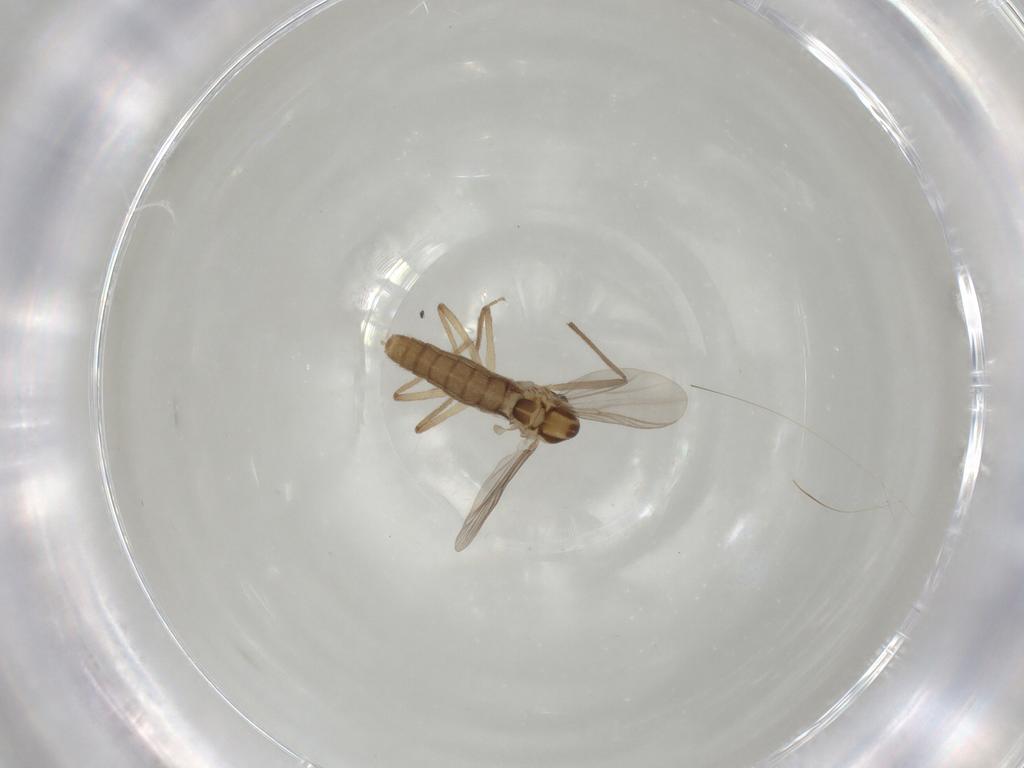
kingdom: Animalia
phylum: Arthropoda
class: Insecta
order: Diptera
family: Chironomidae
